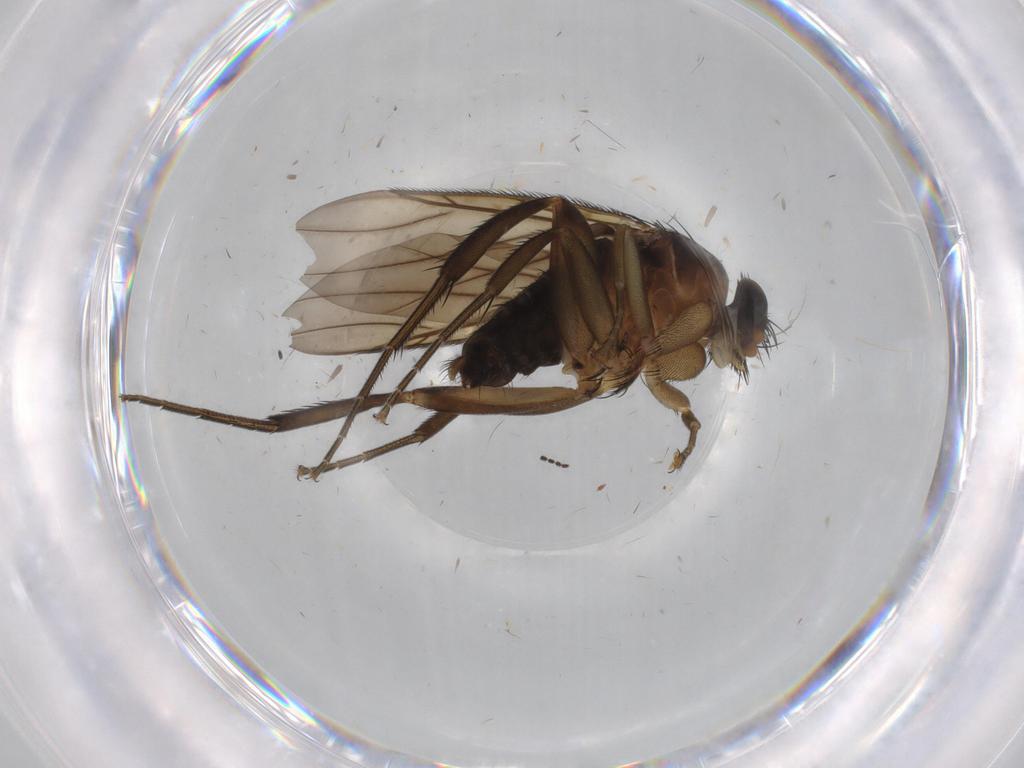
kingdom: Animalia
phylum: Arthropoda
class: Insecta
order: Diptera
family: Phoridae
